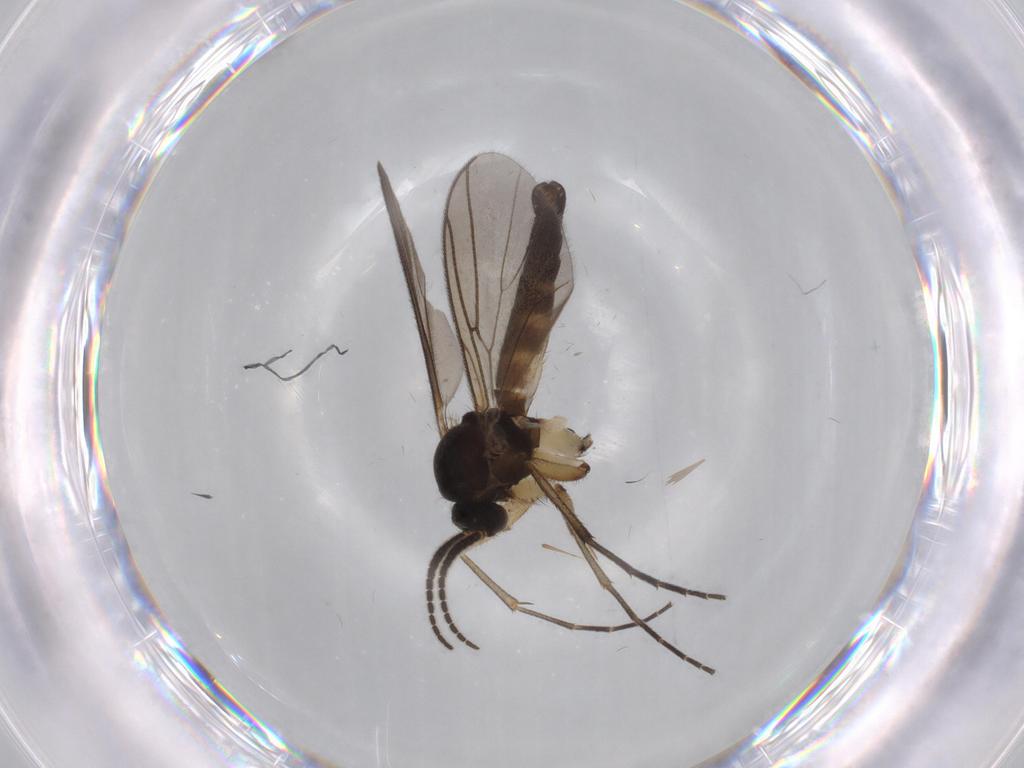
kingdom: Animalia
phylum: Arthropoda
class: Insecta
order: Diptera
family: Mycetophilidae
